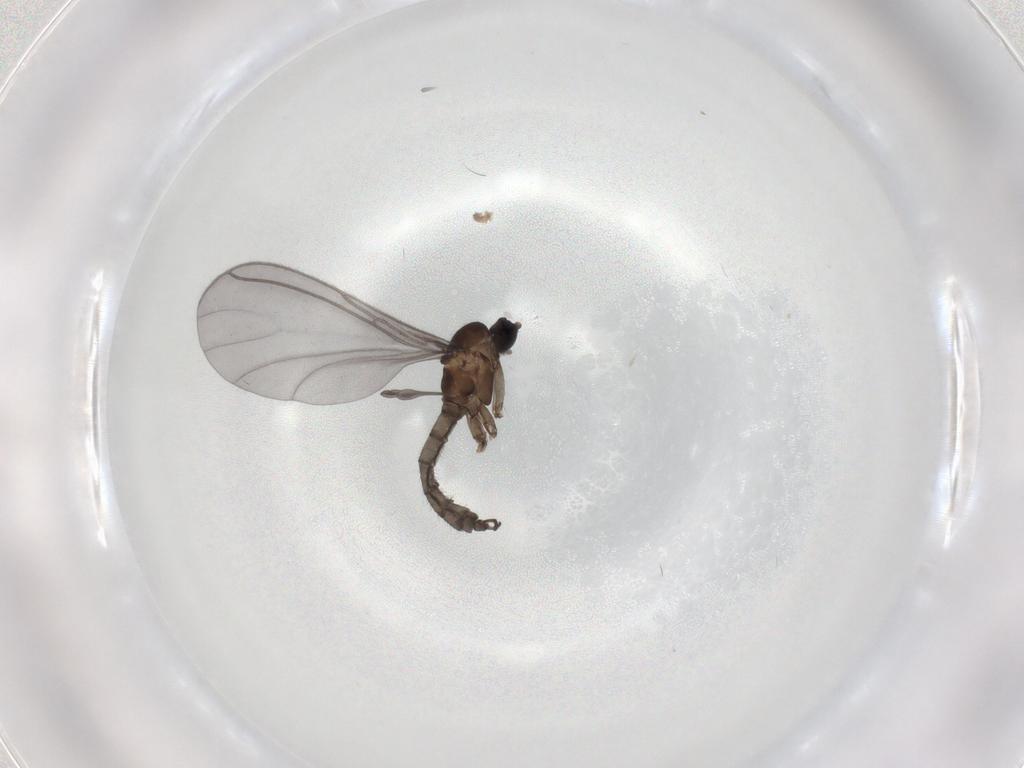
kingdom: Animalia
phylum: Arthropoda
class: Insecta
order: Diptera
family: Sciaridae
